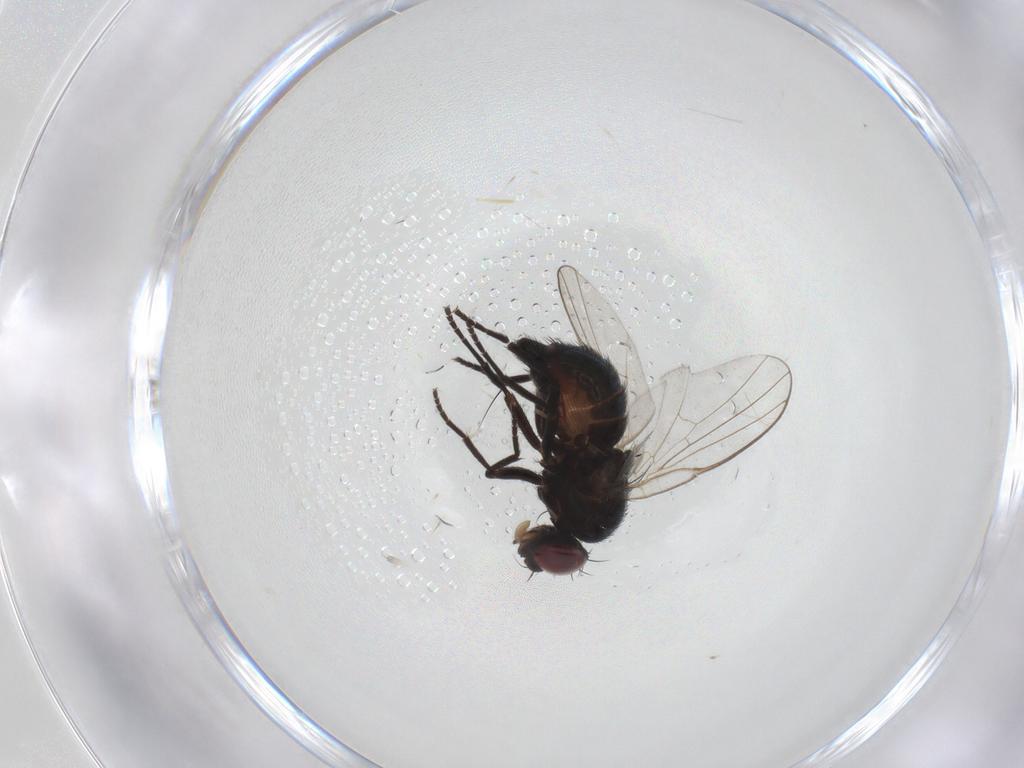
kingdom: Animalia
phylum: Arthropoda
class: Insecta
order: Diptera
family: Agromyzidae
